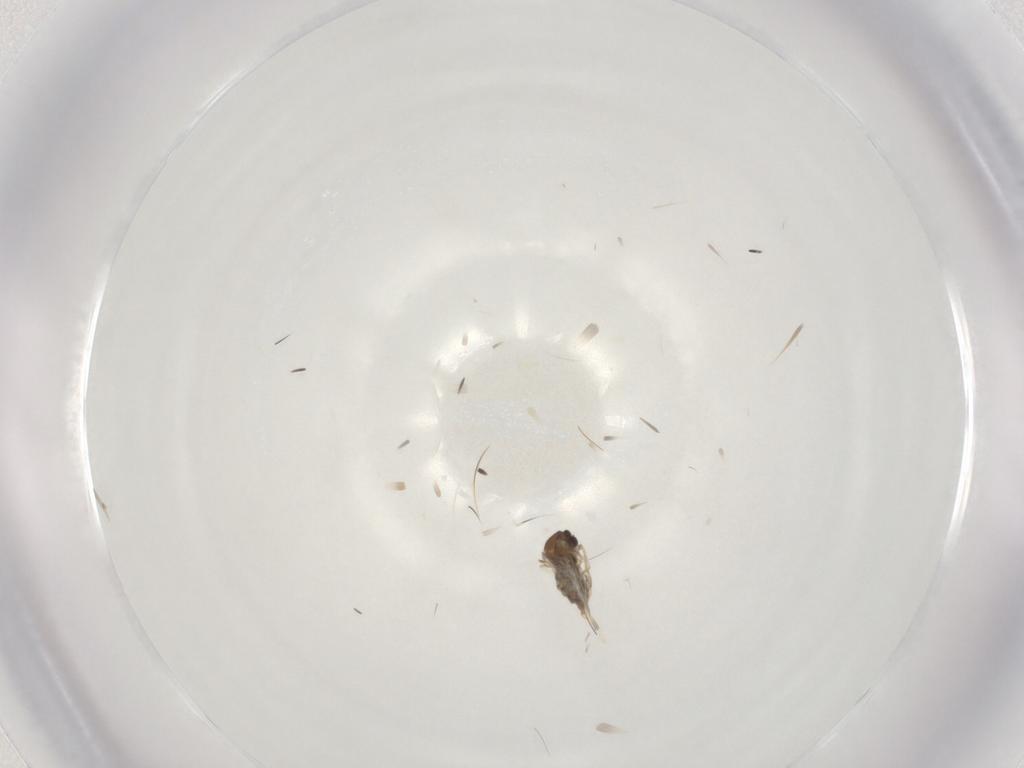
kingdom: Animalia
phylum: Arthropoda
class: Insecta
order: Diptera
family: Cecidomyiidae
